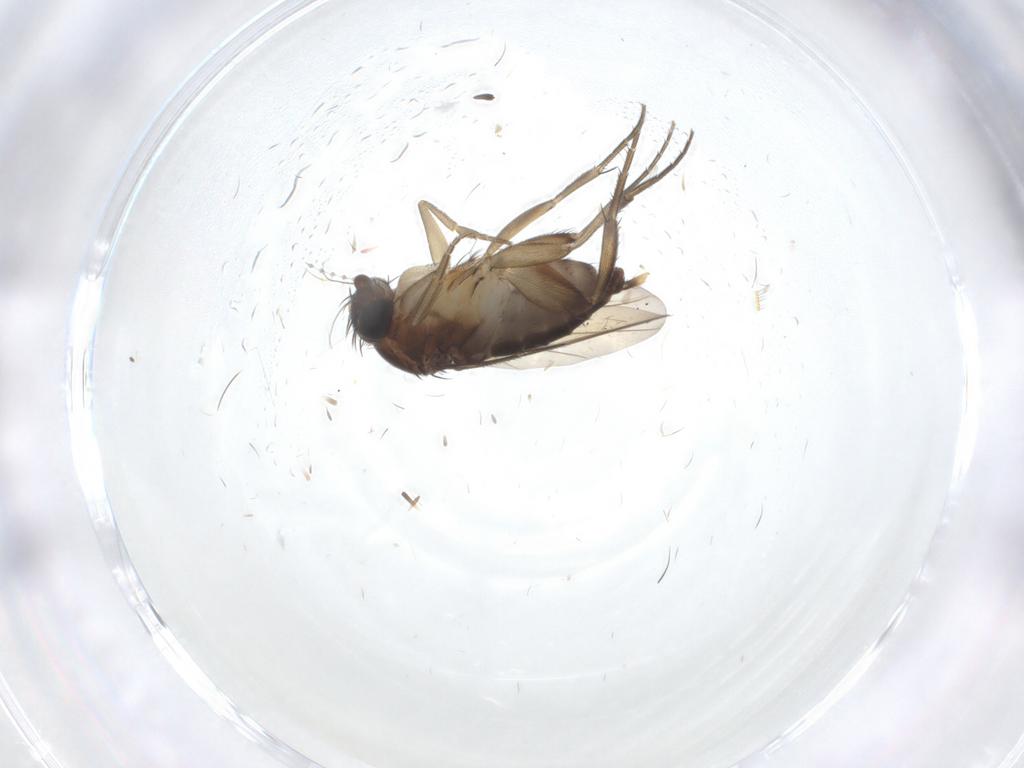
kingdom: Animalia
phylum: Arthropoda
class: Insecta
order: Diptera
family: Phoridae
